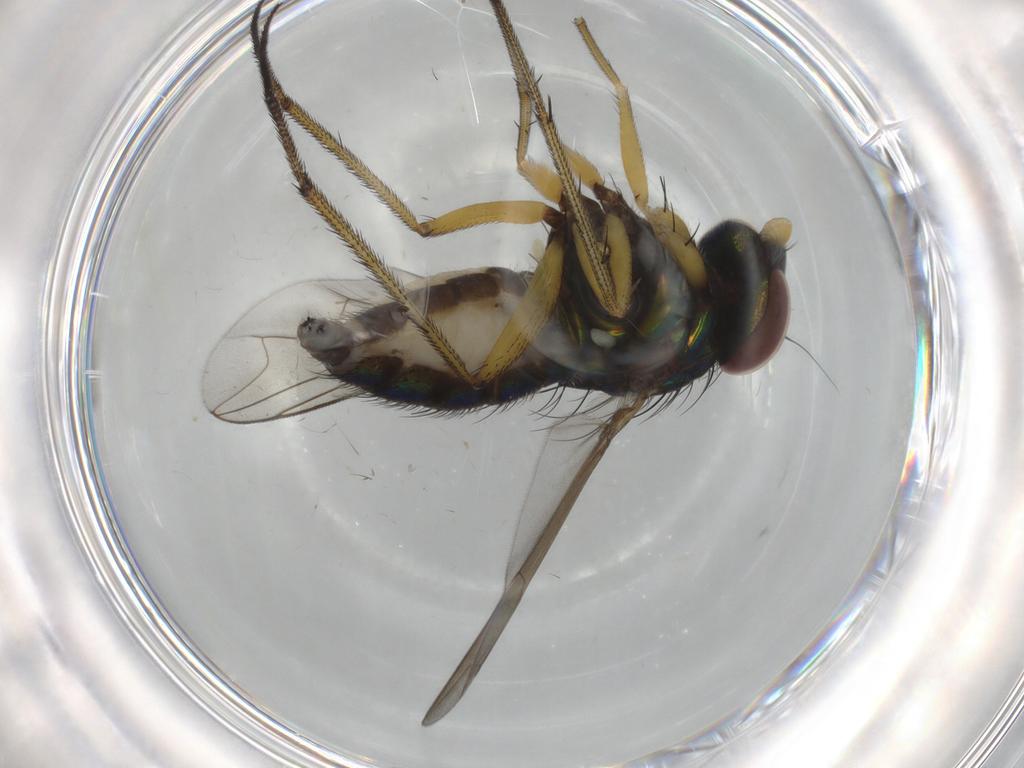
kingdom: Animalia
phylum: Arthropoda
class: Insecta
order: Diptera
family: Dolichopodidae
